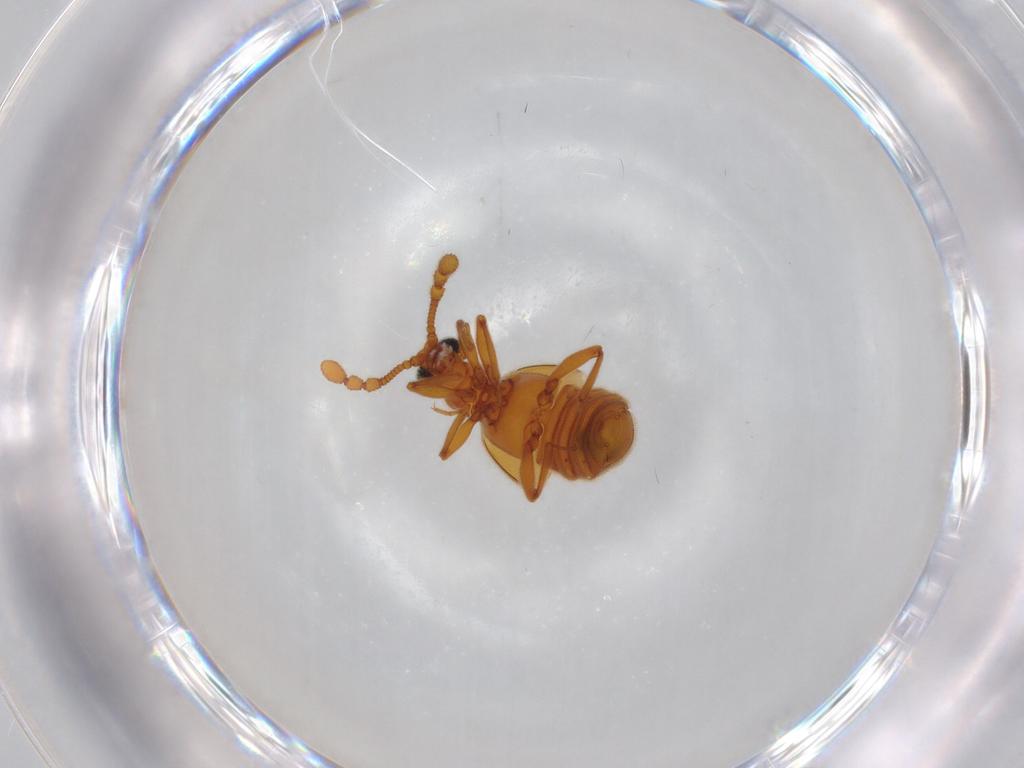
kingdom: Animalia
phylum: Arthropoda
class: Insecta
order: Coleoptera
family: Staphylinidae
